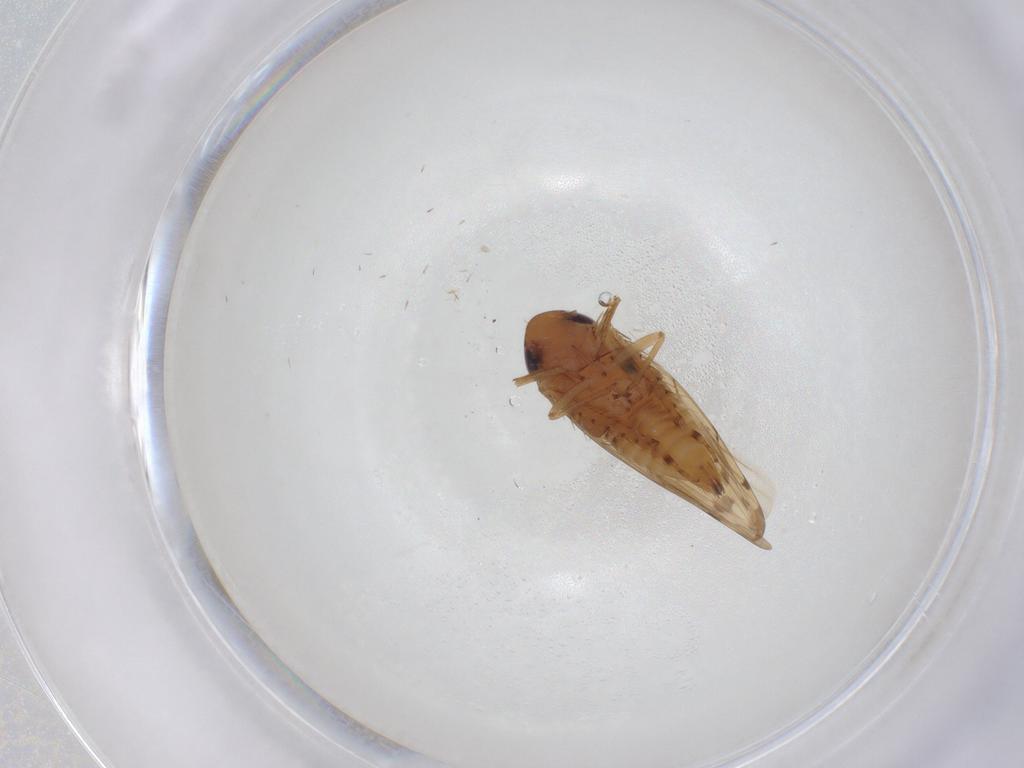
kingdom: Animalia
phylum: Arthropoda
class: Insecta
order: Hemiptera
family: Cicadellidae
